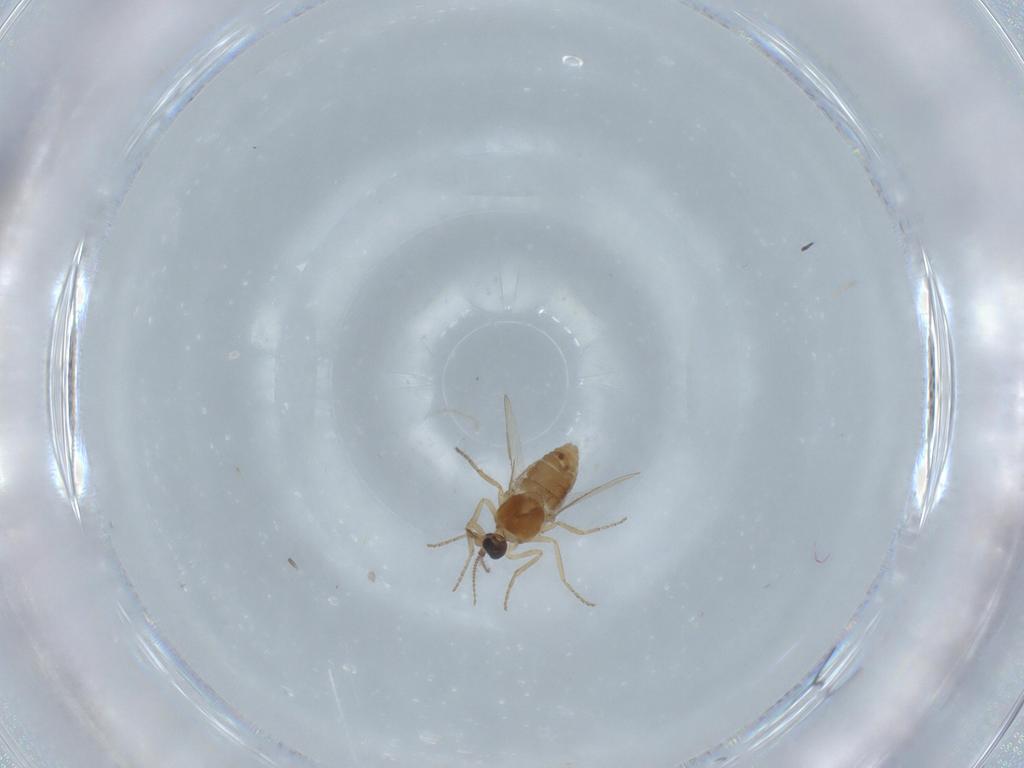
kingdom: Animalia
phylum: Arthropoda
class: Insecta
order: Diptera
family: Ceratopogonidae
